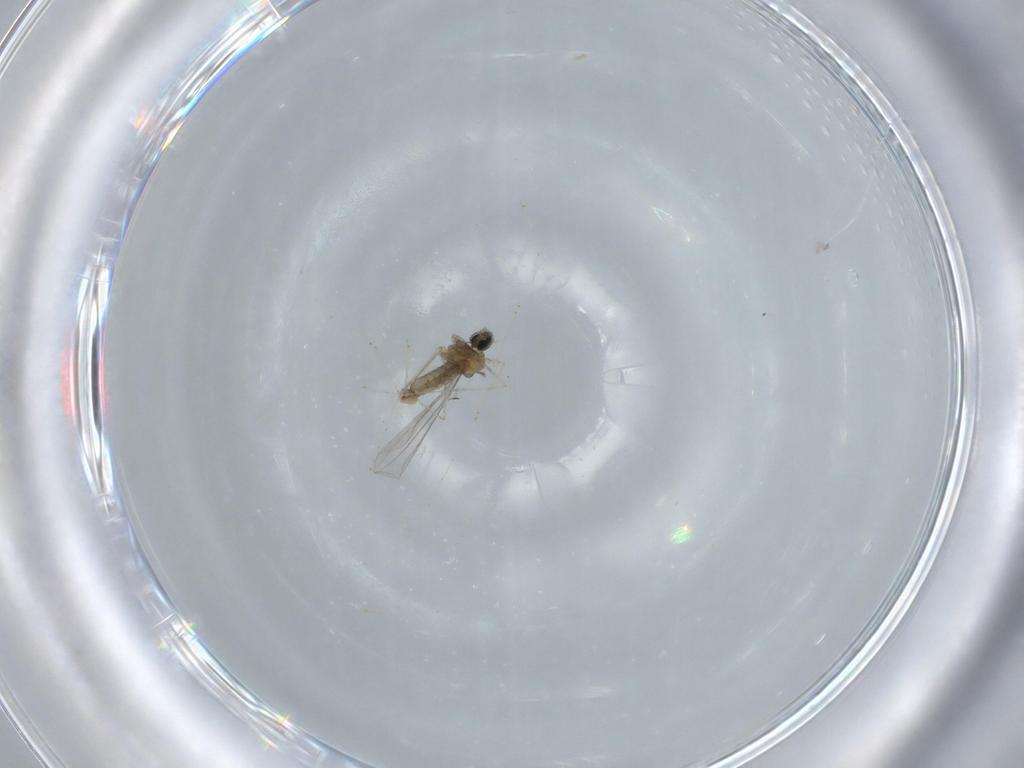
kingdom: Animalia
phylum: Arthropoda
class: Insecta
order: Diptera
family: Cecidomyiidae
